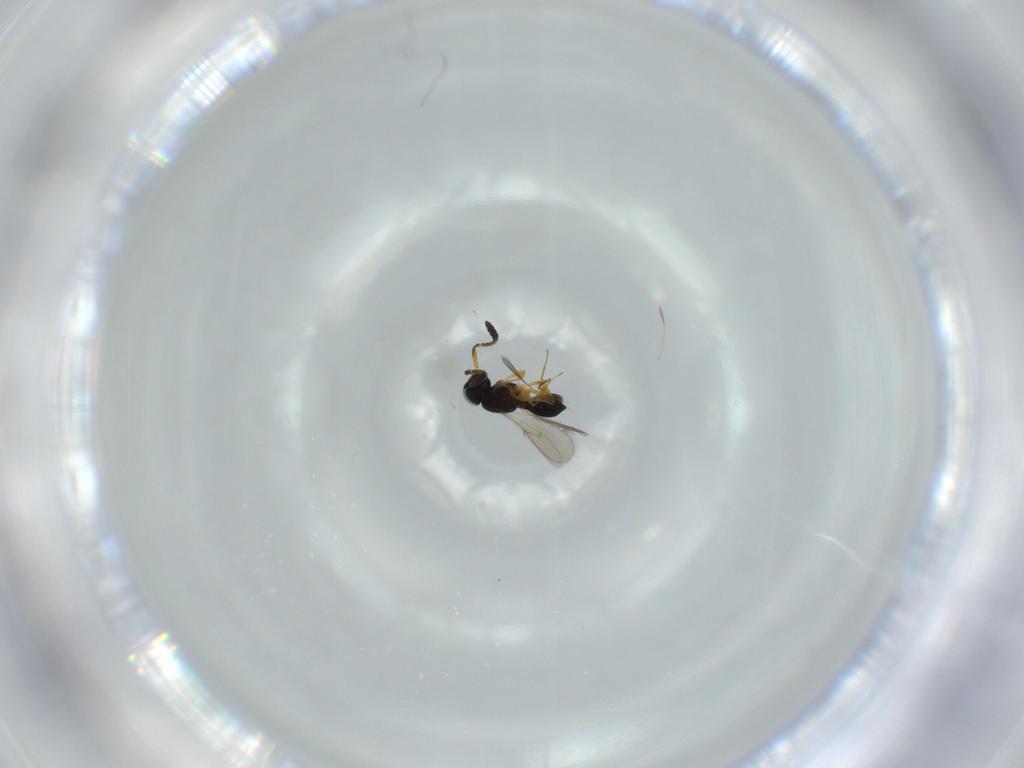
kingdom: Animalia
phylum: Arthropoda
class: Insecta
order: Hymenoptera
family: Scelionidae
